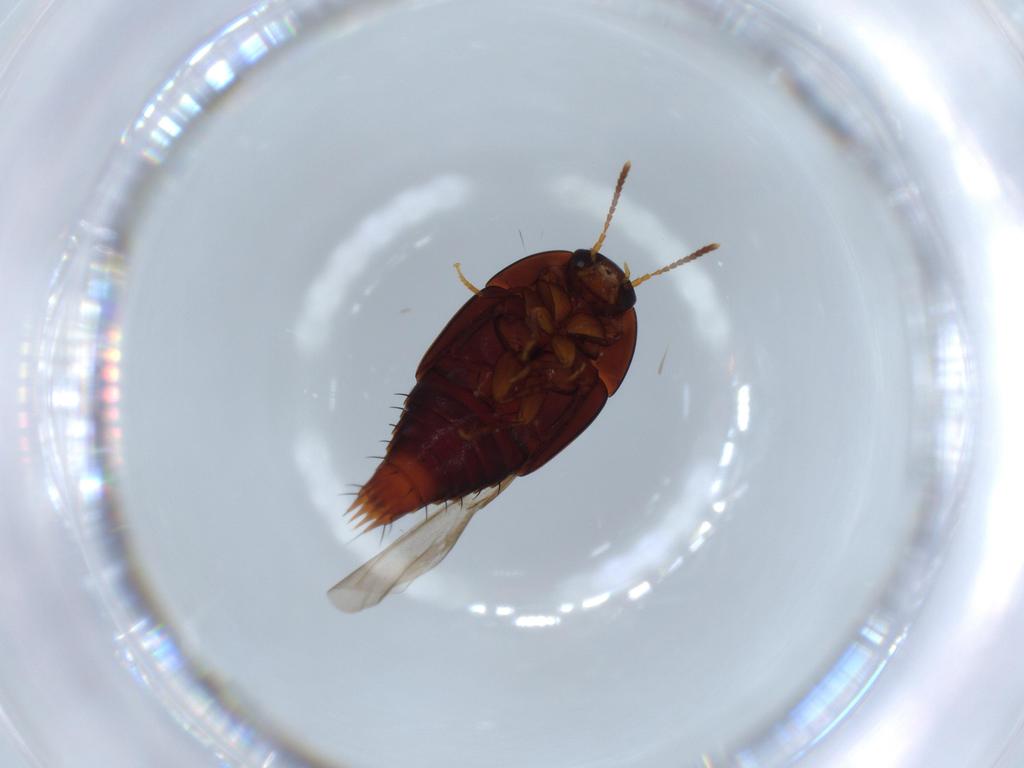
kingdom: Animalia
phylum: Arthropoda
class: Insecta
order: Coleoptera
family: Staphylinidae
